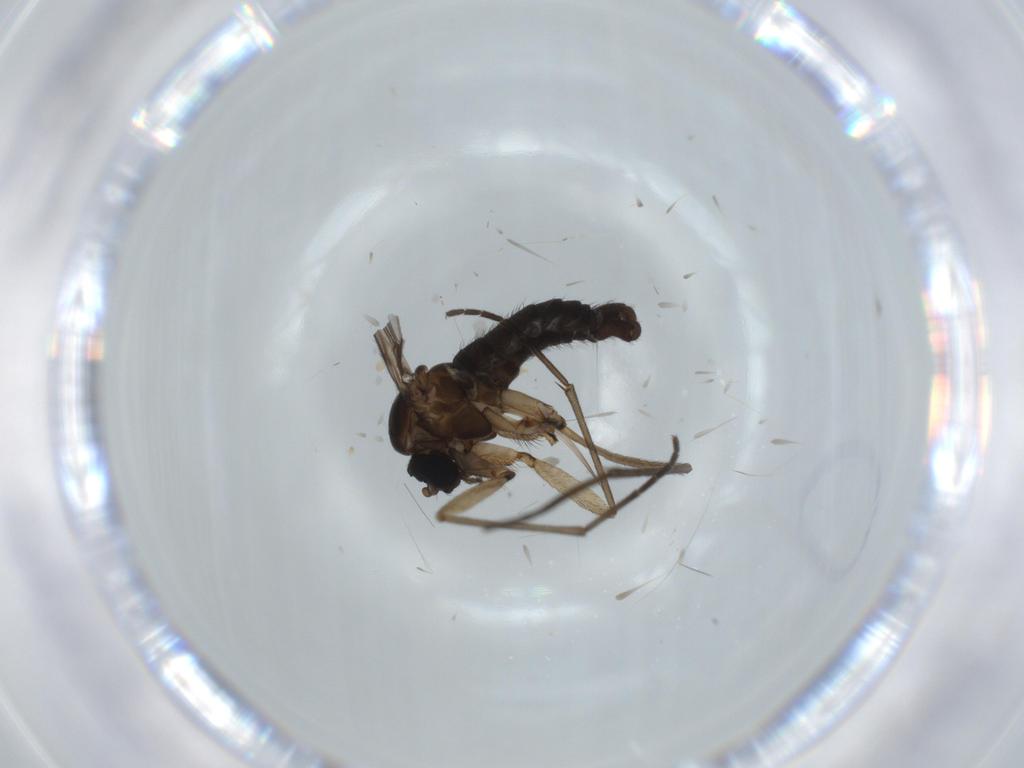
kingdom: Animalia
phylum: Arthropoda
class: Insecta
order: Diptera
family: Sciaridae
